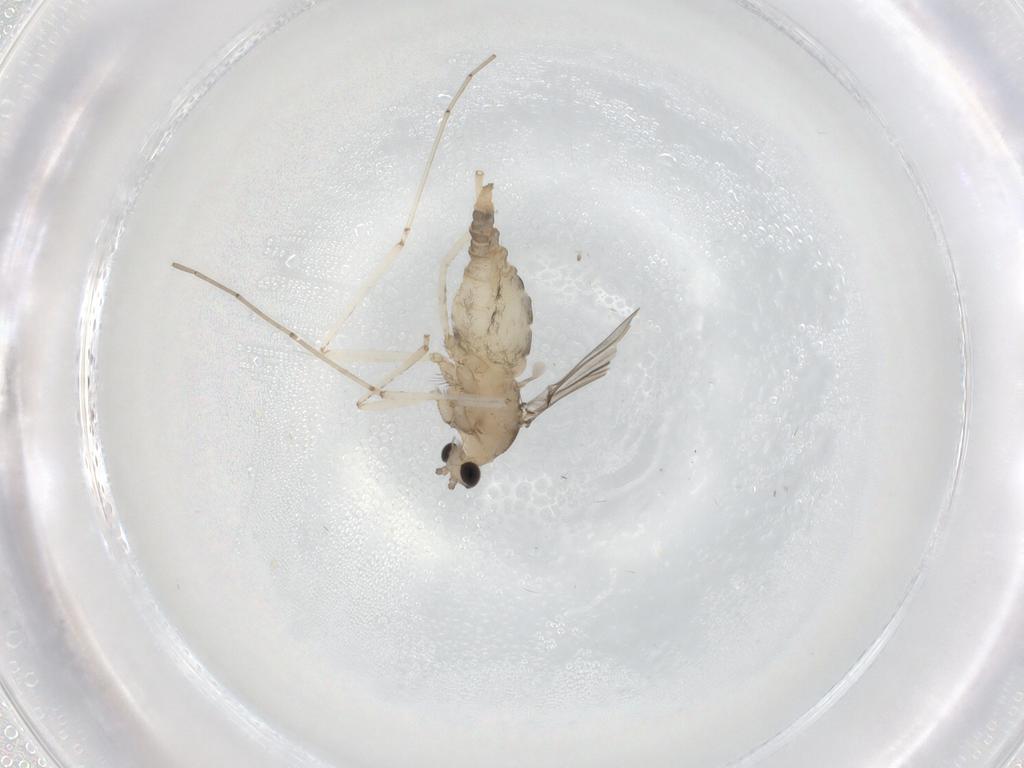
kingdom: Animalia
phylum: Arthropoda
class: Insecta
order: Diptera
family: Cecidomyiidae
